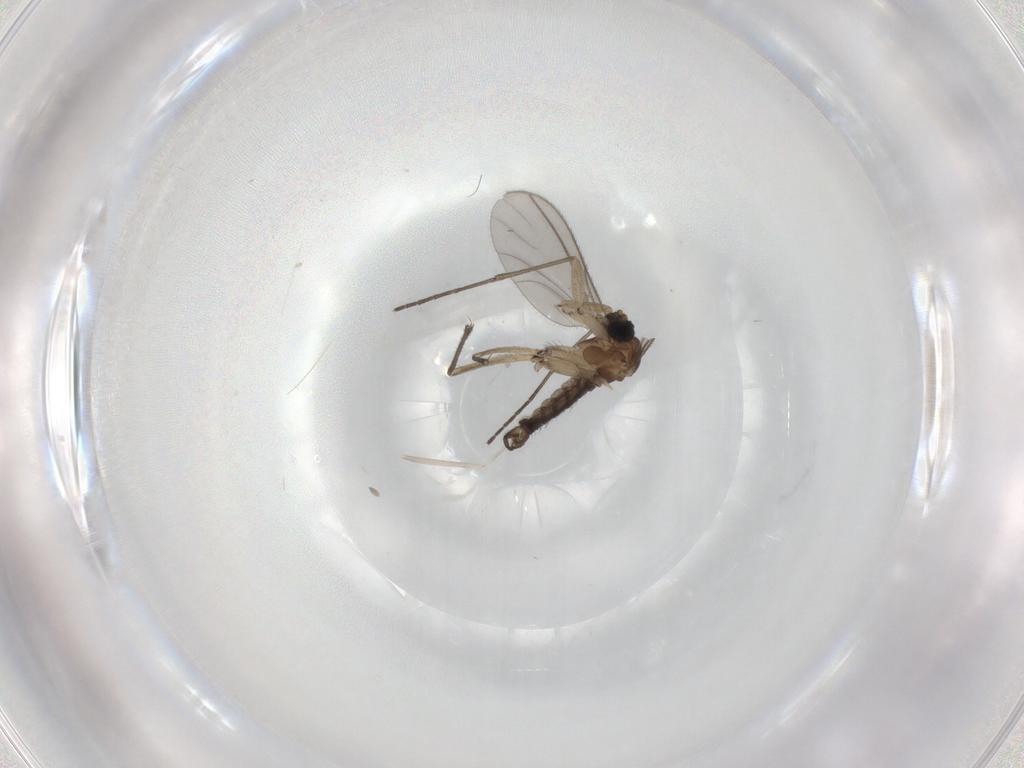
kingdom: Animalia
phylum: Arthropoda
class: Insecta
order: Diptera
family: Sciaridae
